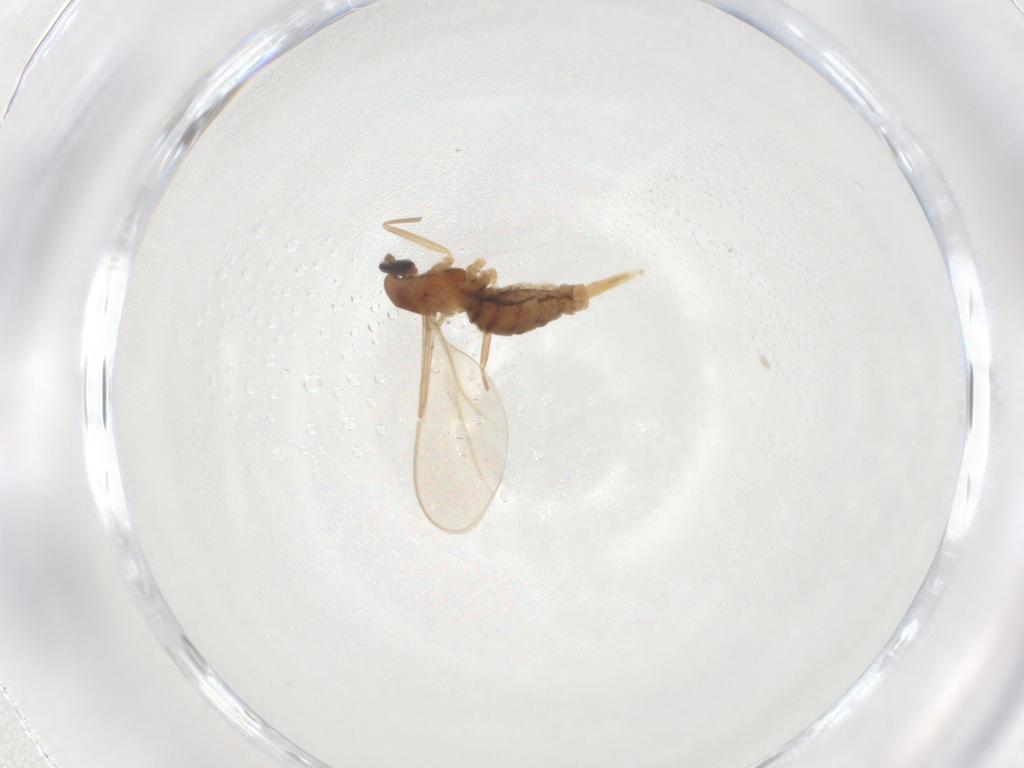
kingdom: Animalia
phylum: Arthropoda
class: Insecta
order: Diptera
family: Cecidomyiidae
